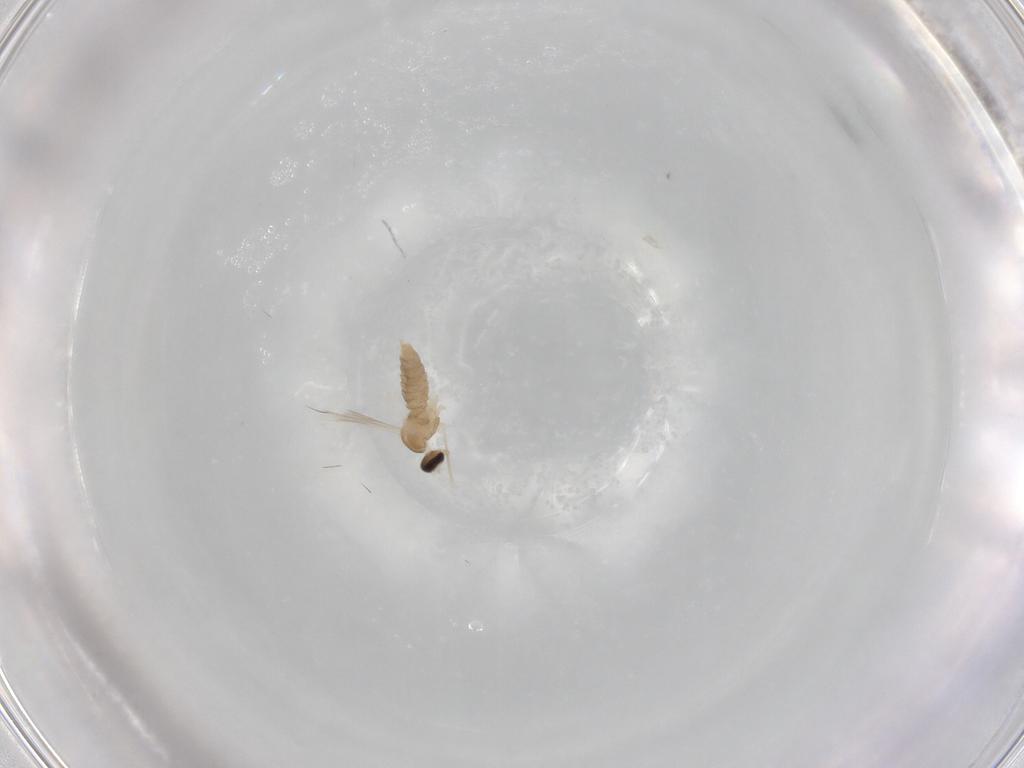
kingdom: Animalia
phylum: Arthropoda
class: Insecta
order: Diptera
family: Cecidomyiidae
